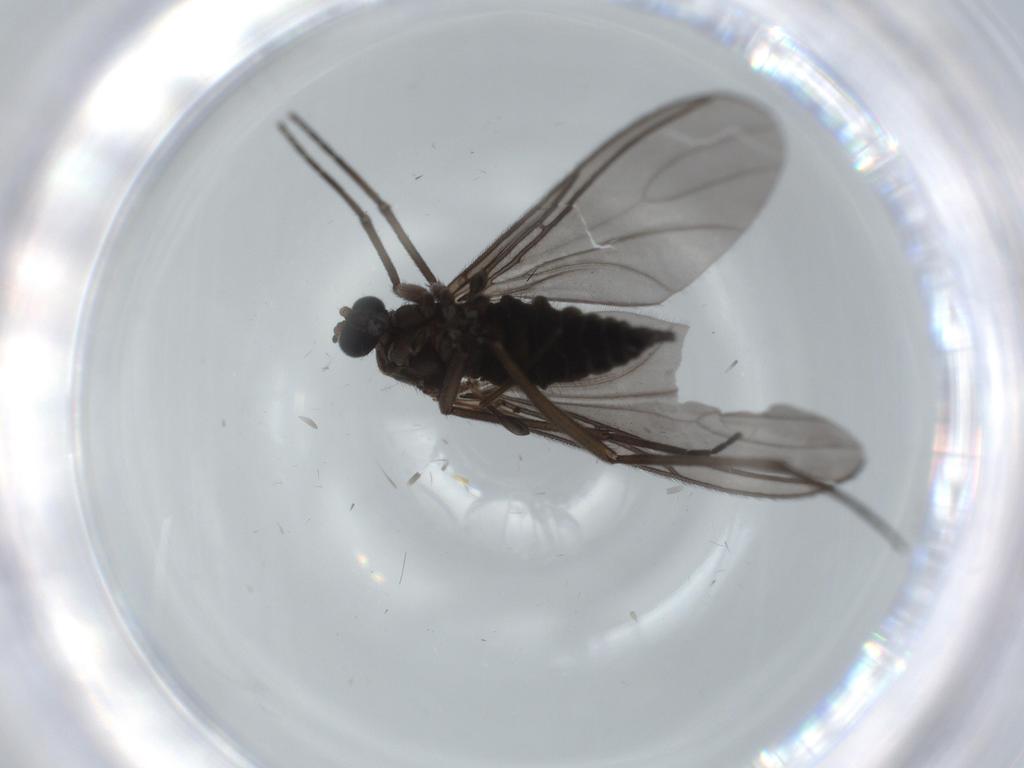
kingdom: Animalia
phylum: Arthropoda
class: Insecta
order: Diptera
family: Sciaridae
